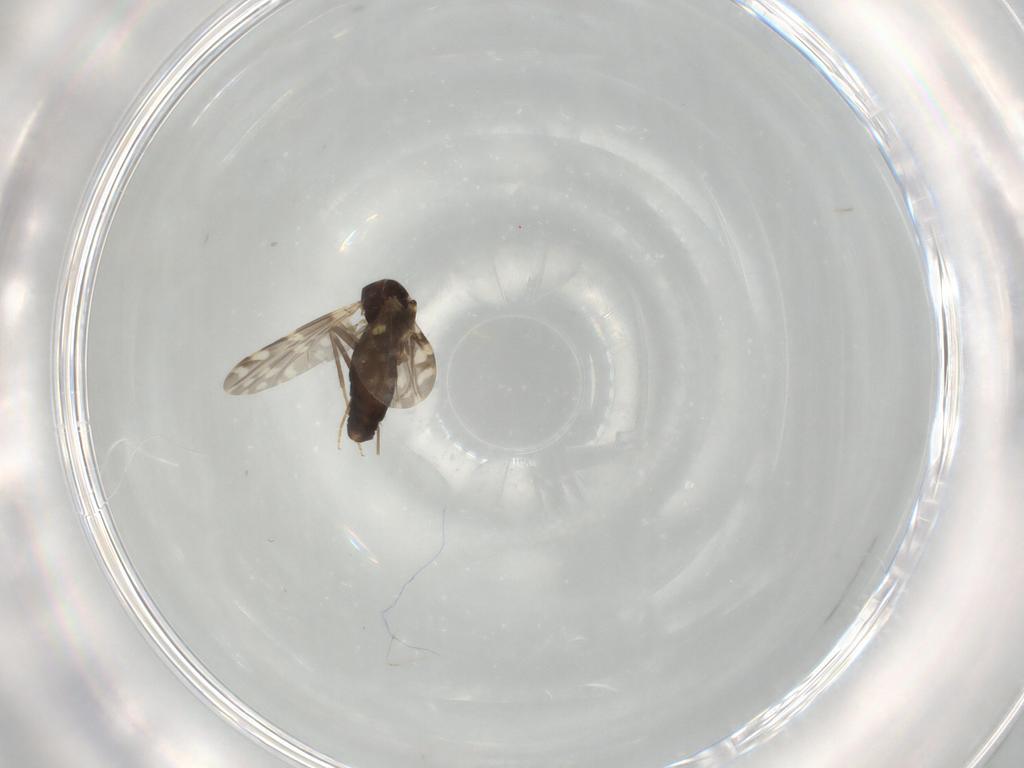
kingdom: Animalia
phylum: Arthropoda
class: Insecta
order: Diptera
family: Ceratopogonidae
